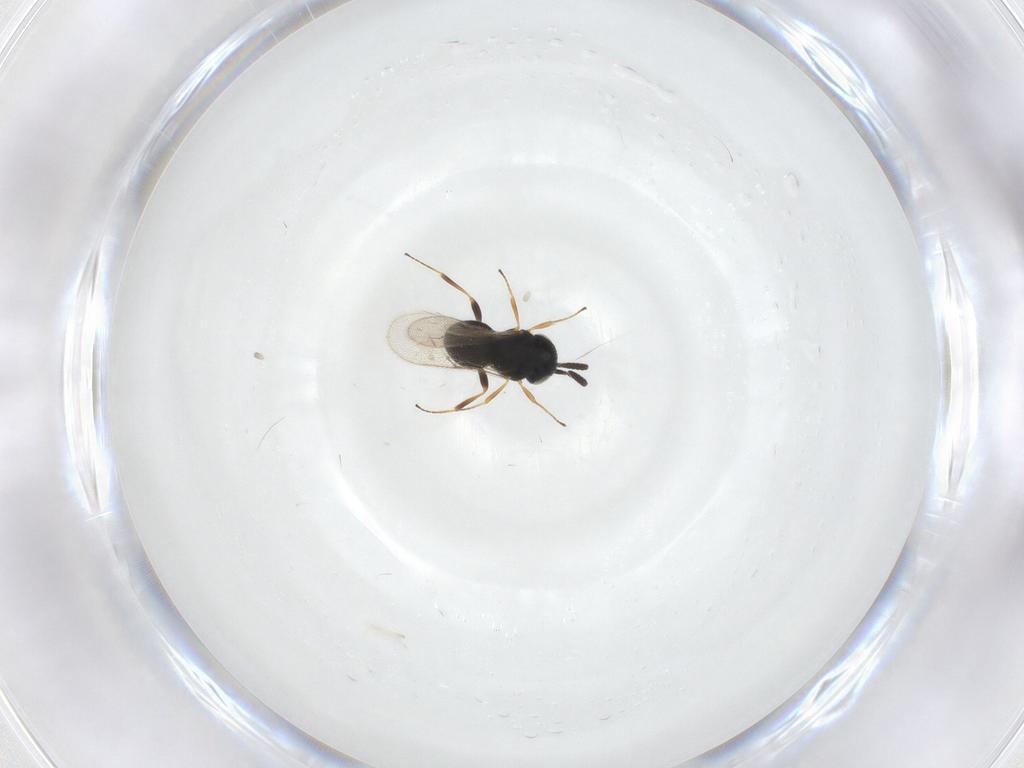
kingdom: Animalia
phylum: Arthropoda
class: Insecta
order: Hymenoptera
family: Scelionidae
